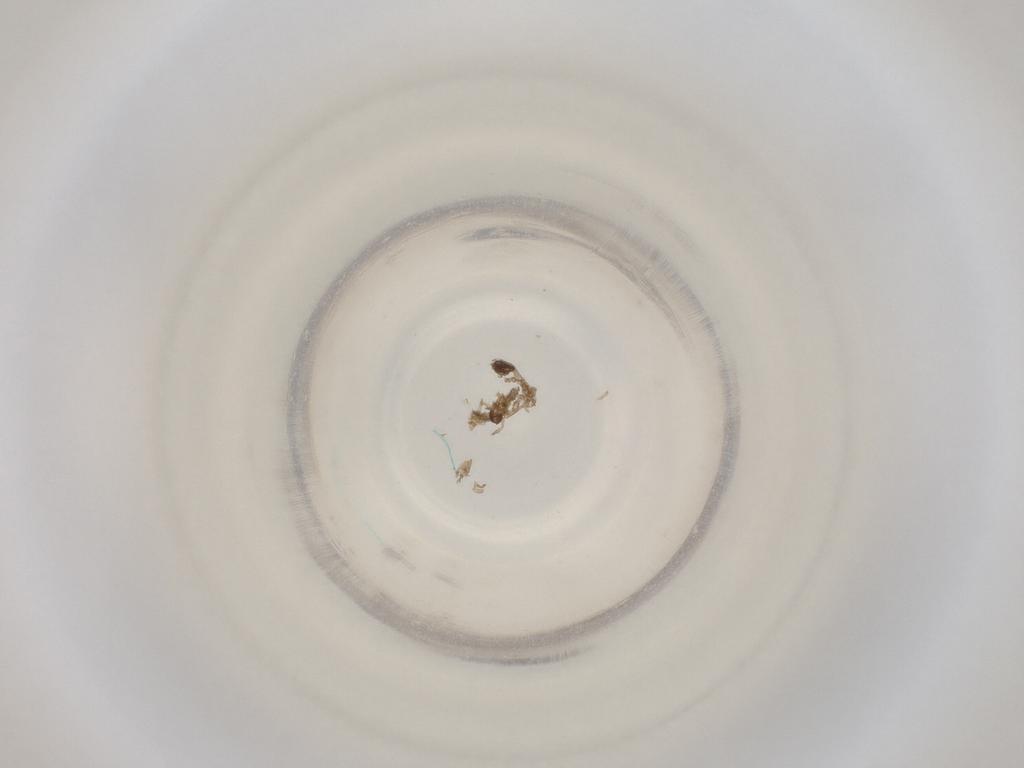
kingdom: Animalia
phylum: Arthropoda
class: Insecta
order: Diptera
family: Cecidomyiidae
